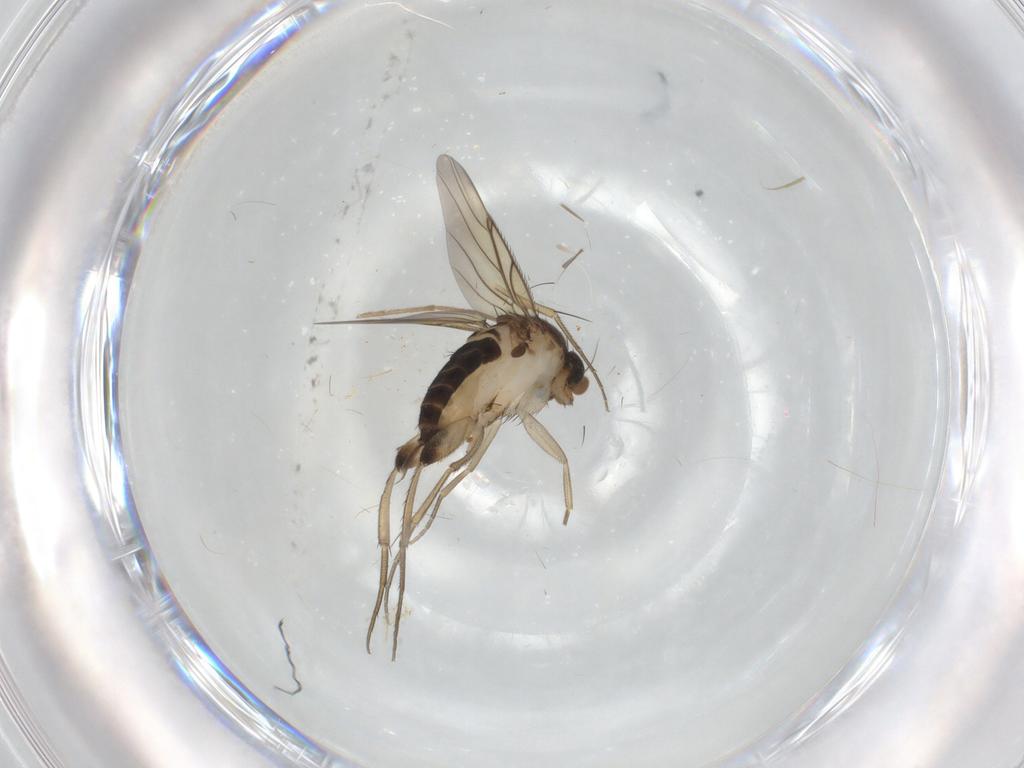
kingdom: Animalia
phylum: Arthropoda
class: Insecta
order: Diptera
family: Phoridae
